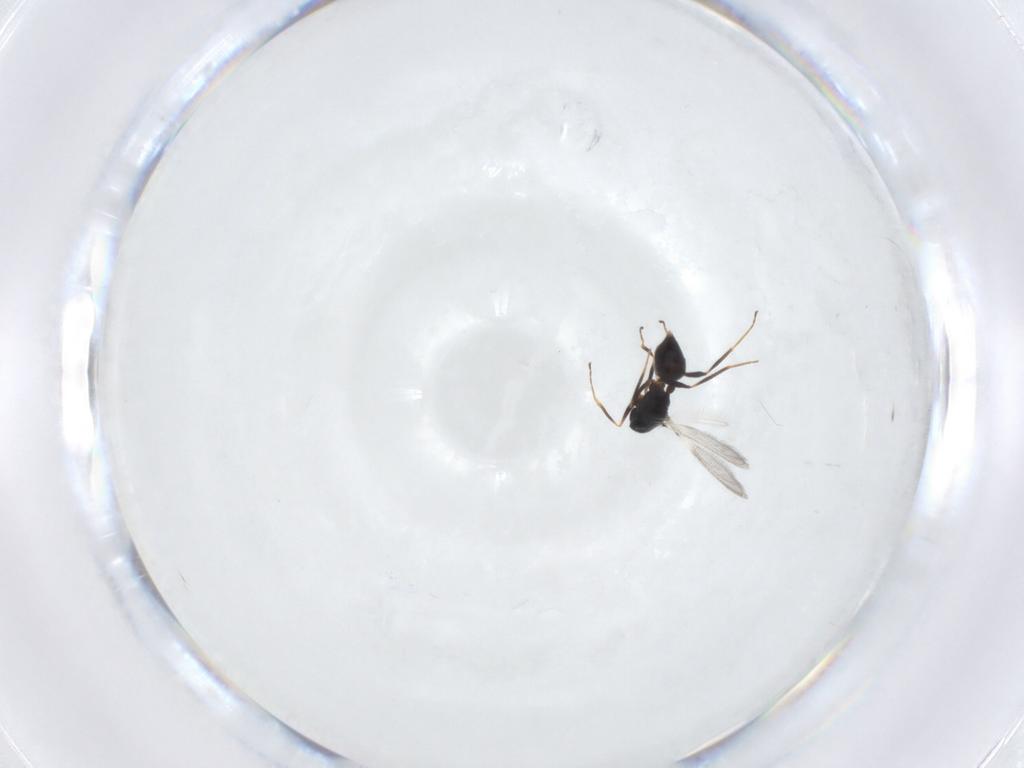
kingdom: Animalia
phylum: Arthropoda
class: Insecta
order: Hymenoptera
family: Mymaridae
